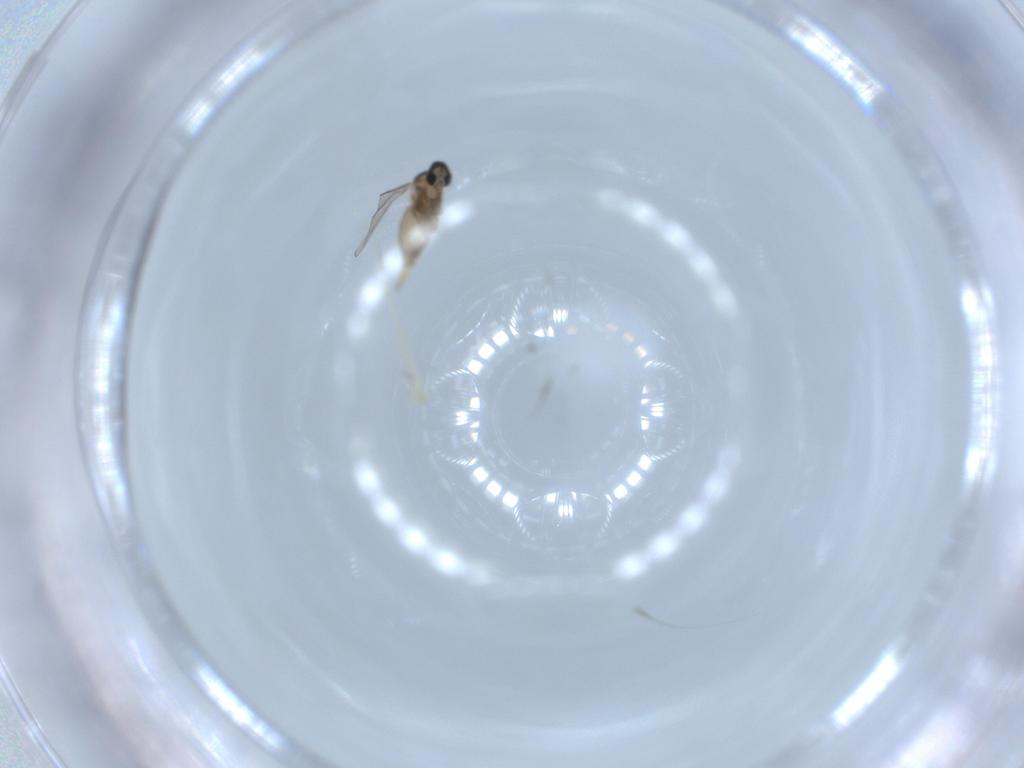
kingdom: Animalia
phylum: Arthropoda
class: Insecta
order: Diptera
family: Cecidomyiidae
